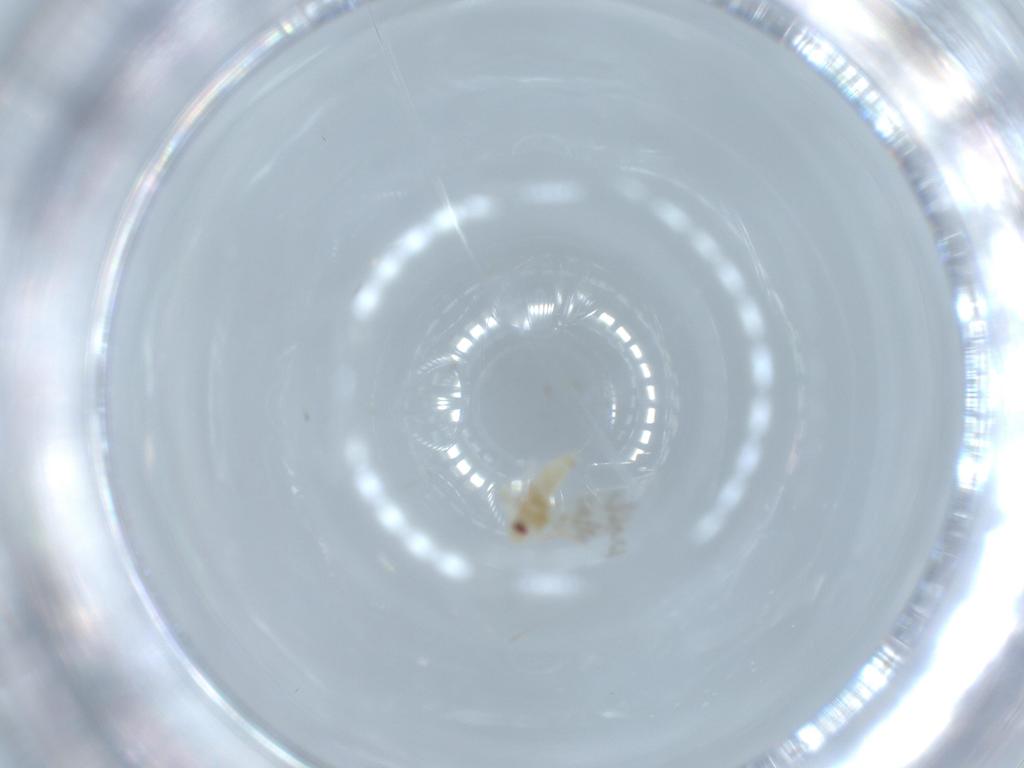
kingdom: Animalia
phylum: Arthropoda
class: Insecta
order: Hemiptera
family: Aleyrodidae
